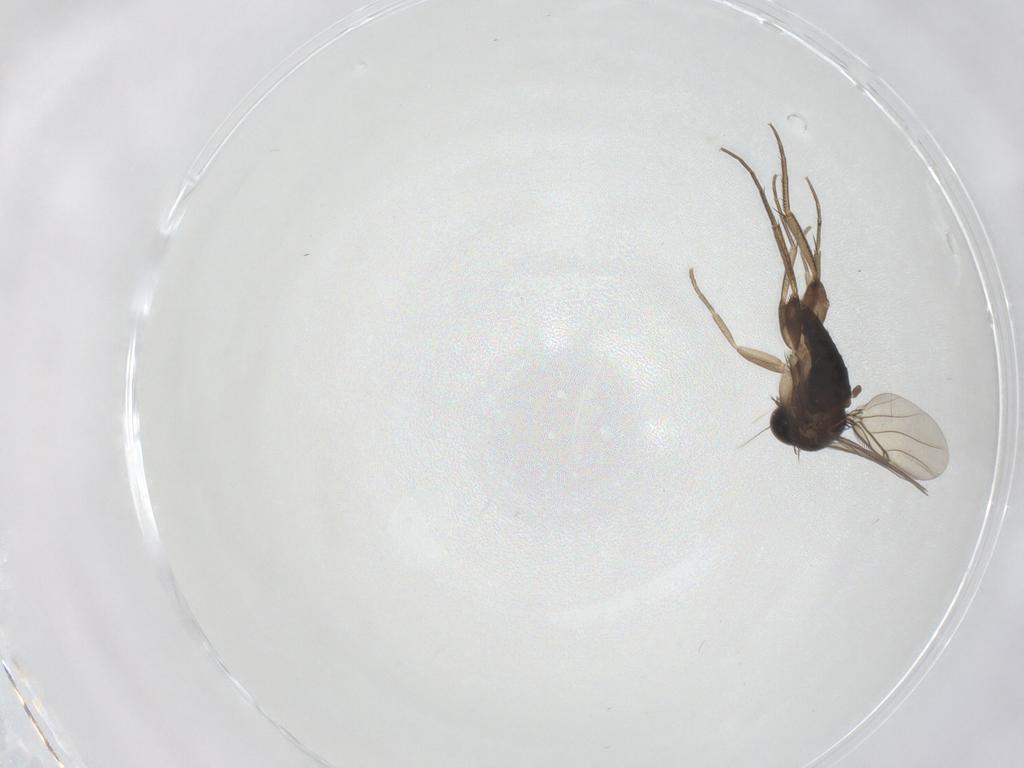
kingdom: Animalia
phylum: Arthropoda
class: Insecta
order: Diptera
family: Phoridae
